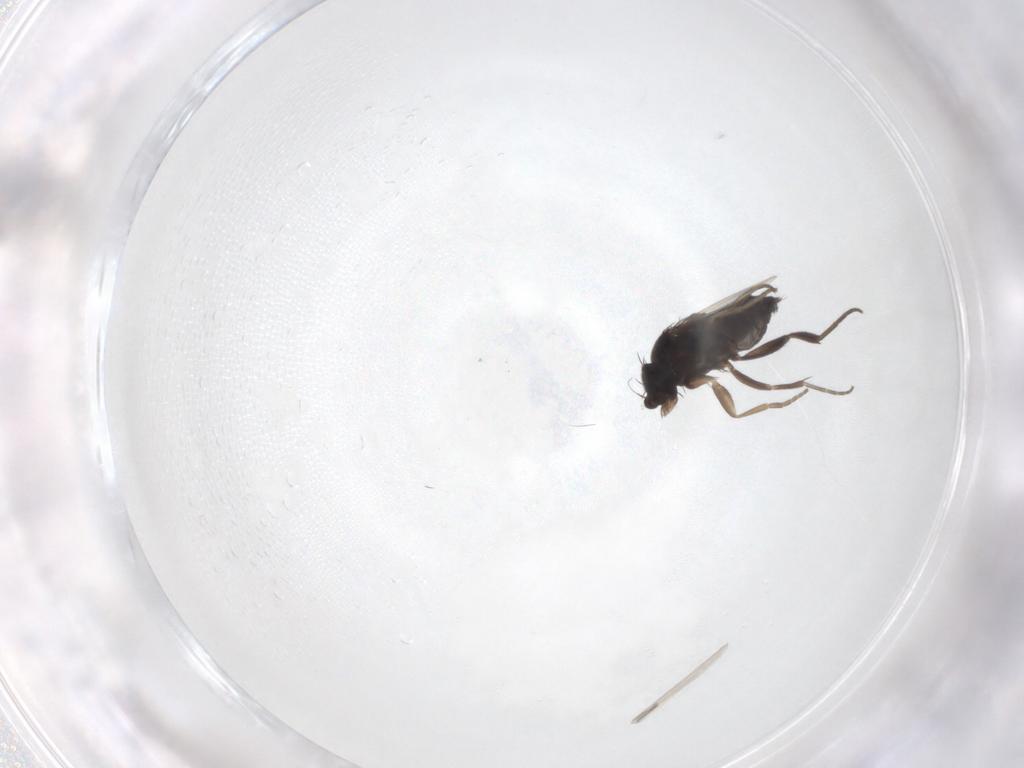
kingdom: Animalia
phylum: Arthropoda
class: Insecta
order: Diptera
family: Phoridae
